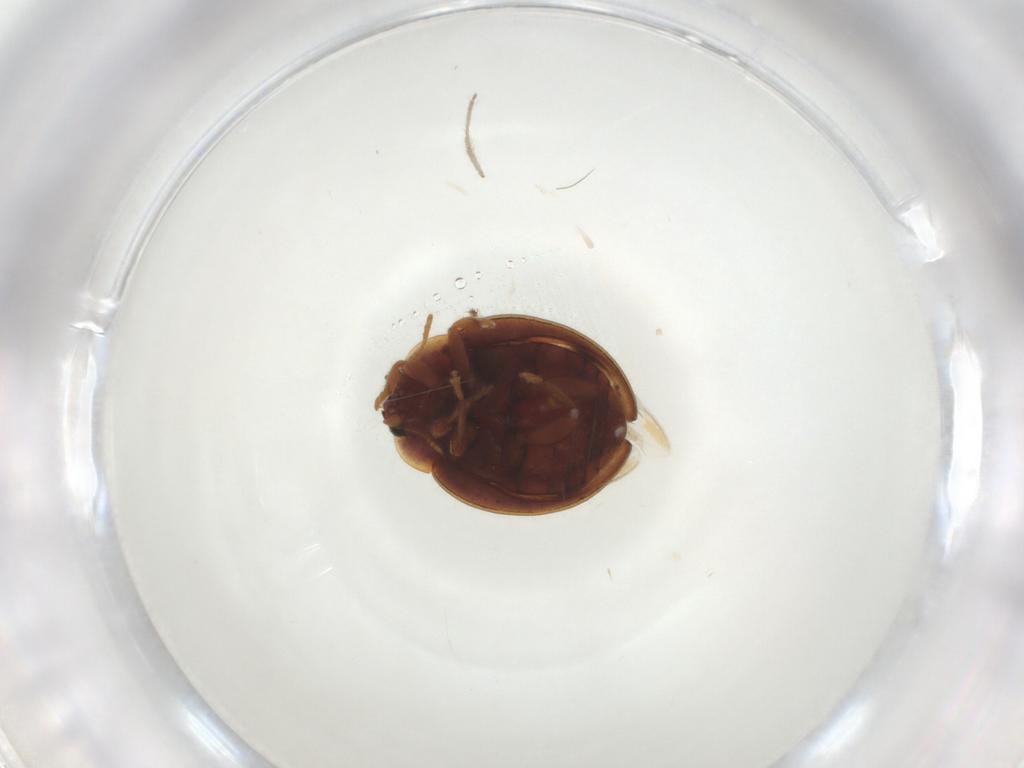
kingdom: Animalia
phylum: Arthropoda
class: Insecta
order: Coleoptera
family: Coccinellidae
